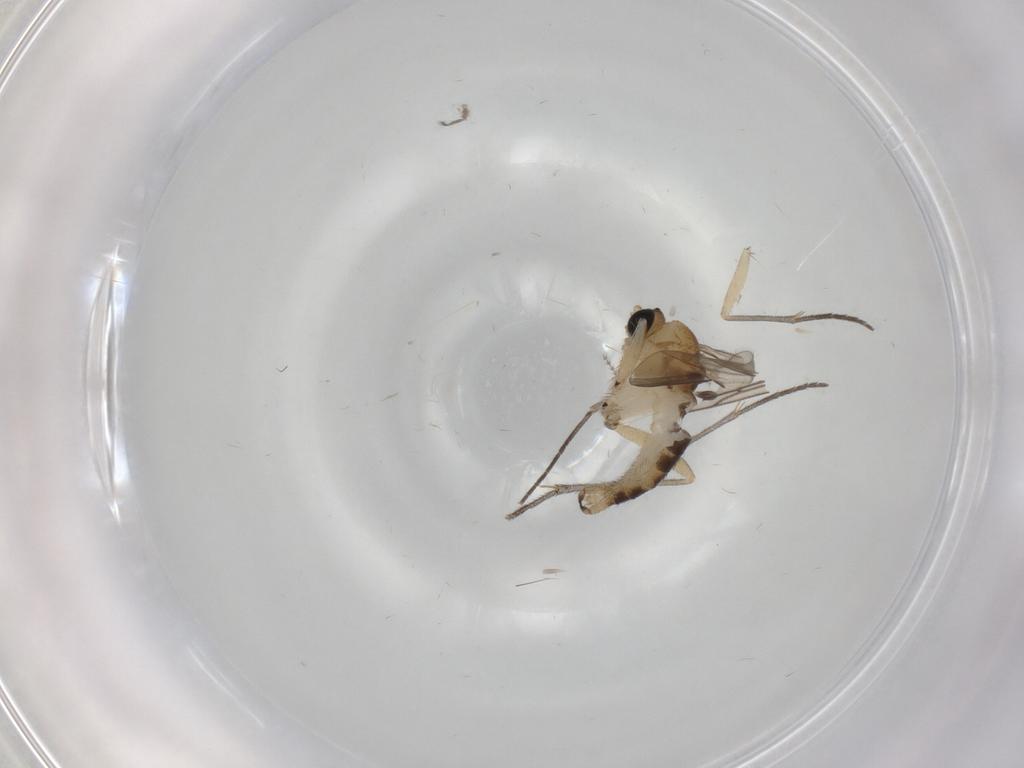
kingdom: Animalia
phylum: Arthropoda
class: Insecta
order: Diptera
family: Sciaridae
